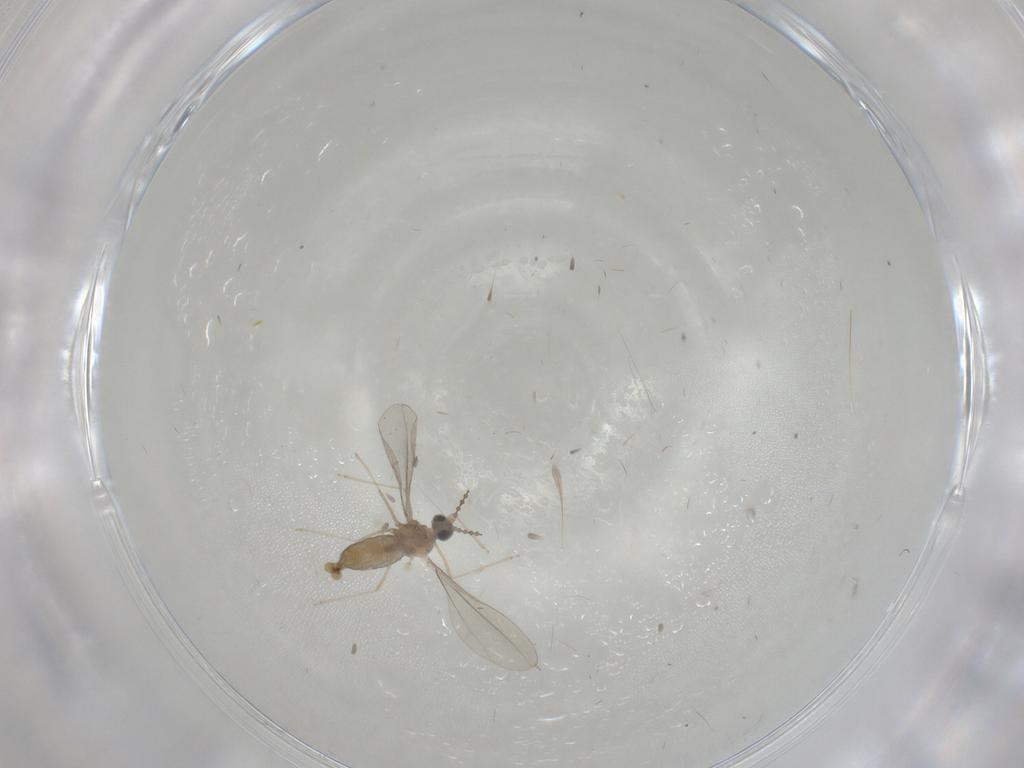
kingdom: Animalia
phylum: Arthropoda
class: Insecta
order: Diptera
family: Cecidomyiidae
